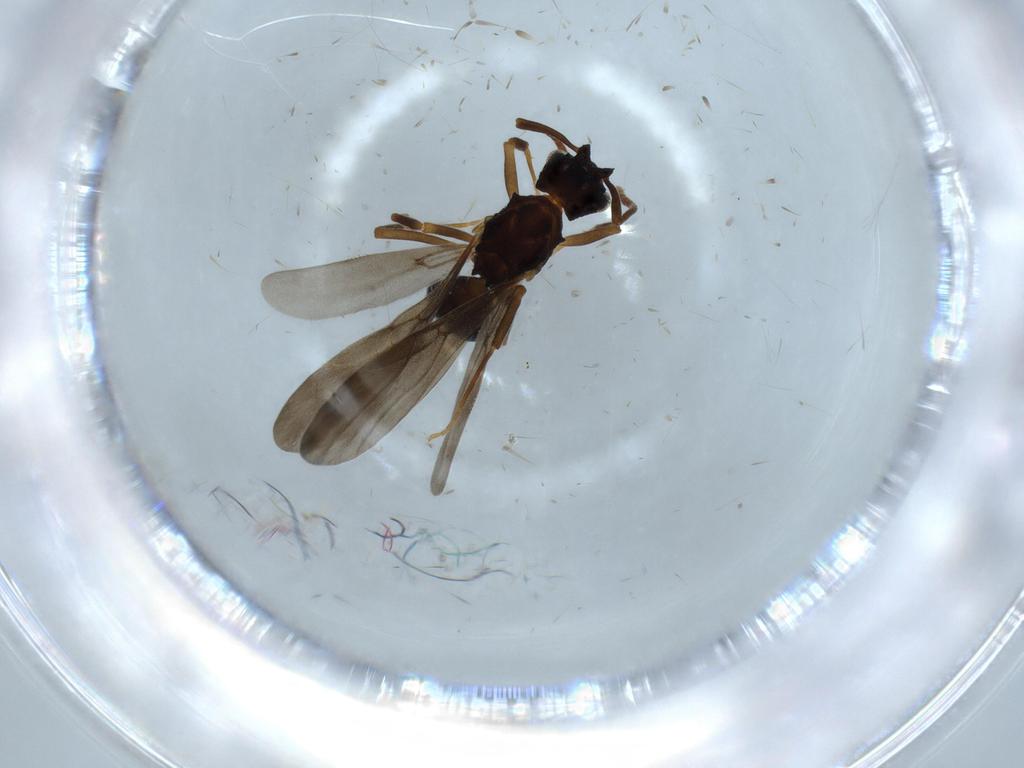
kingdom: Animalia
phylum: Arthropoda
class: Insecta
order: Hymenoptera
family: Formicidae
